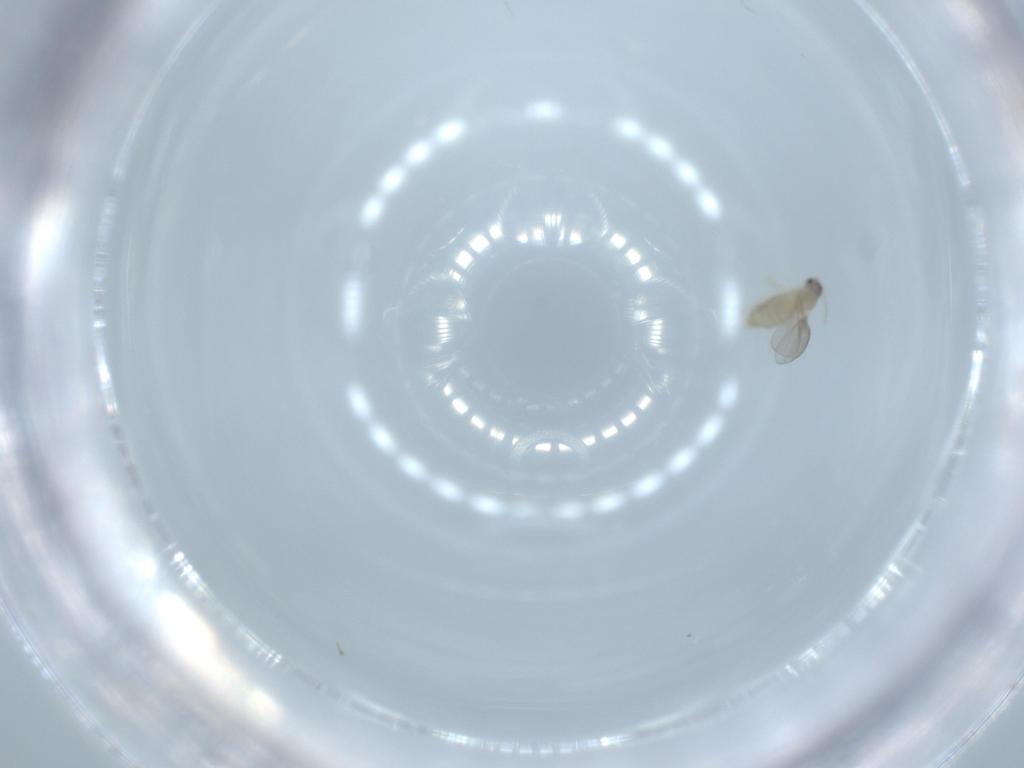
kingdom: Animalia
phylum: Arthropoda
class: Insecta
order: Diptera
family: Cecidomyiidae
